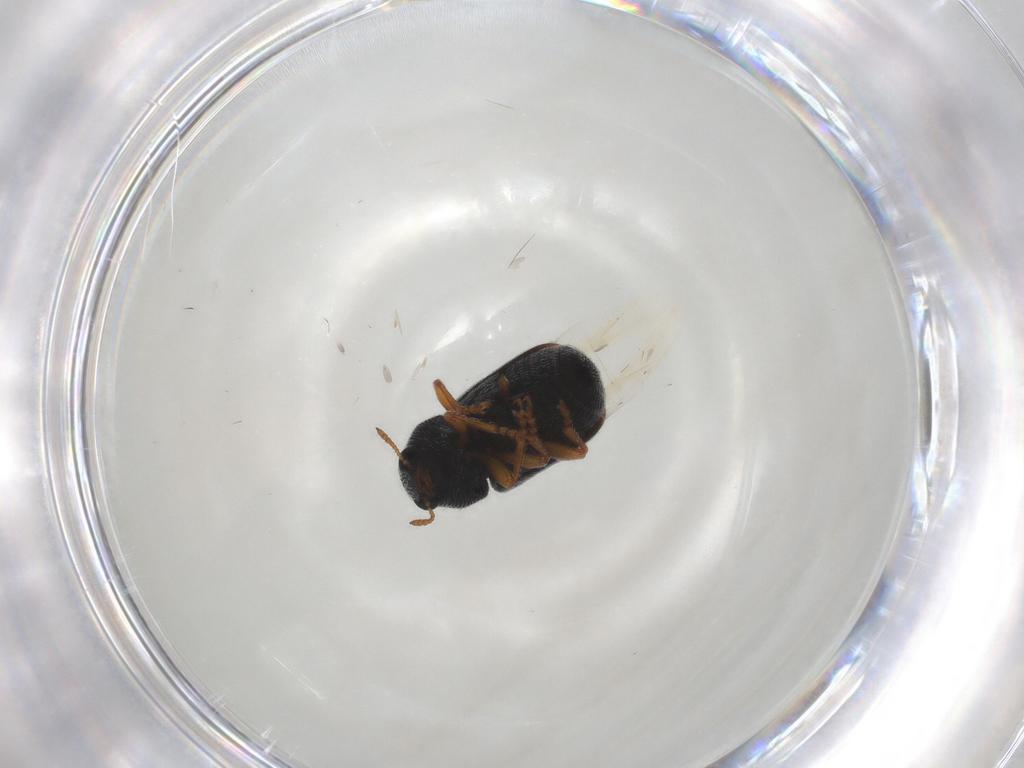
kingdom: Animalia
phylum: Arthropoda
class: Insecta
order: Coleoptera
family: Anthribidae
